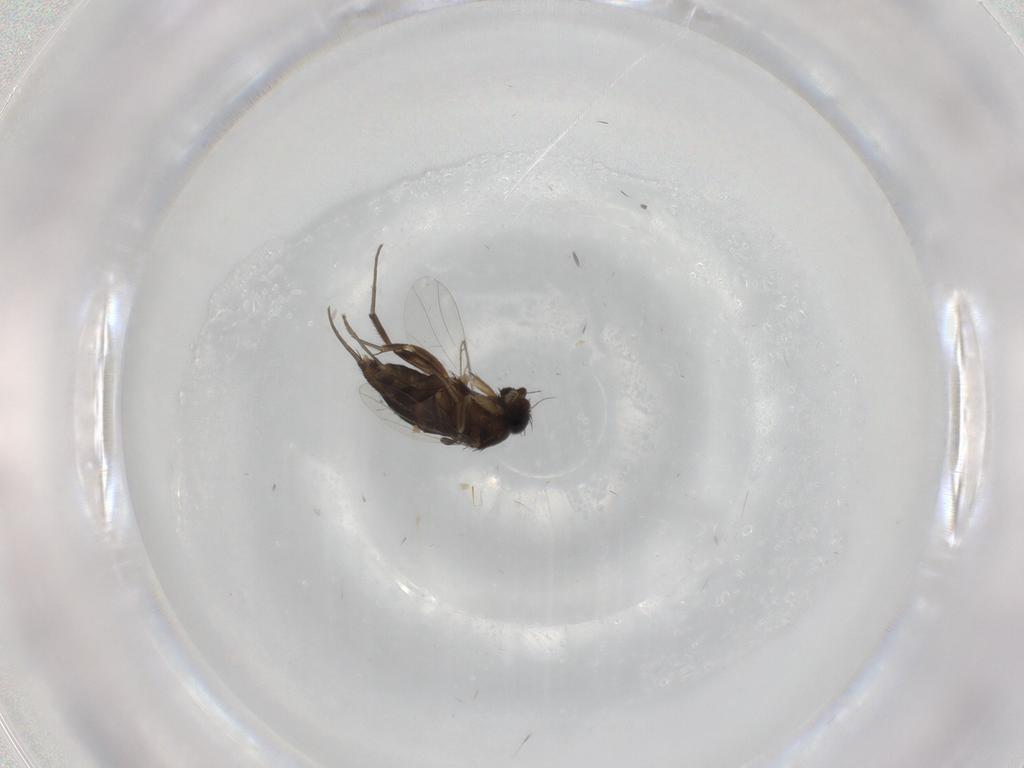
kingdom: Animalia
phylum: Arthropoda
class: Insecta
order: Diptera
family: Phoridae
